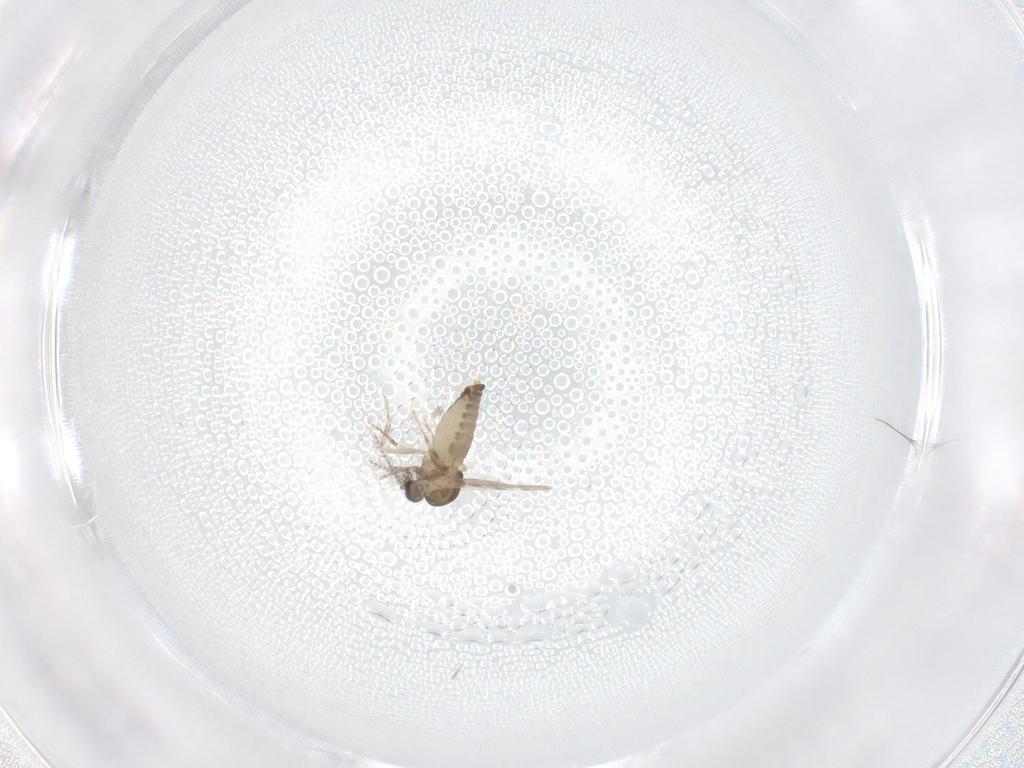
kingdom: Animalia
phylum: Arthropoda
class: Insecta
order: Diptera
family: Ceratopogonidae
